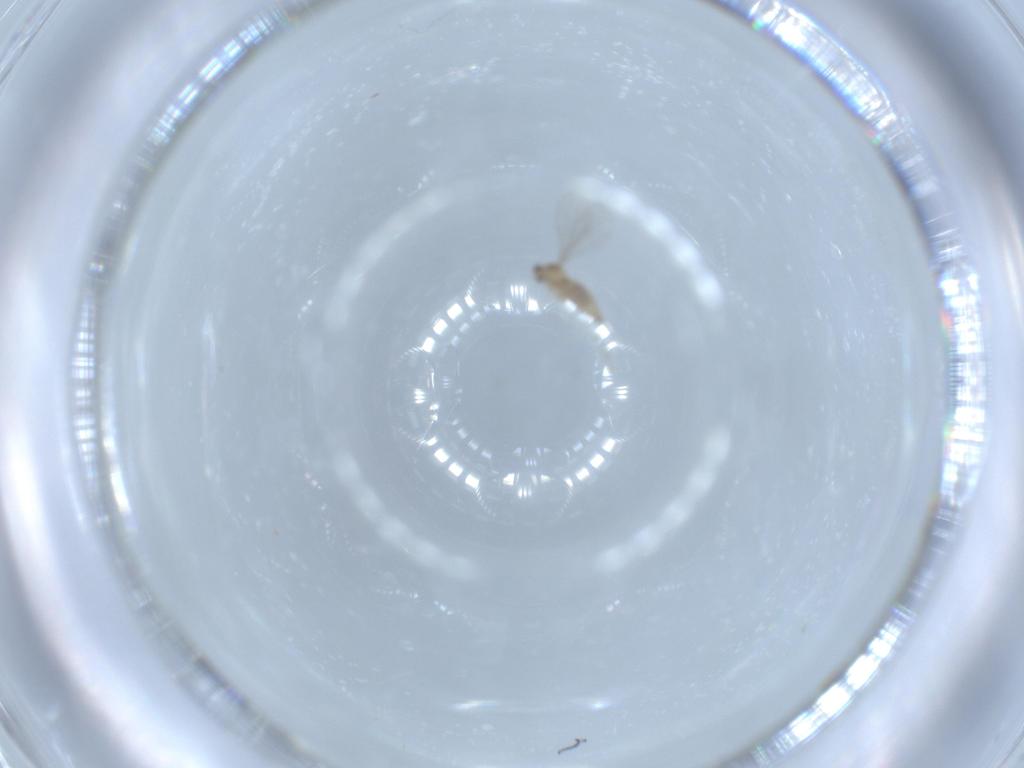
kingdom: Animalia
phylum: Arthropoda
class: Insecta
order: Diptera
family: Cecidomyiidae
